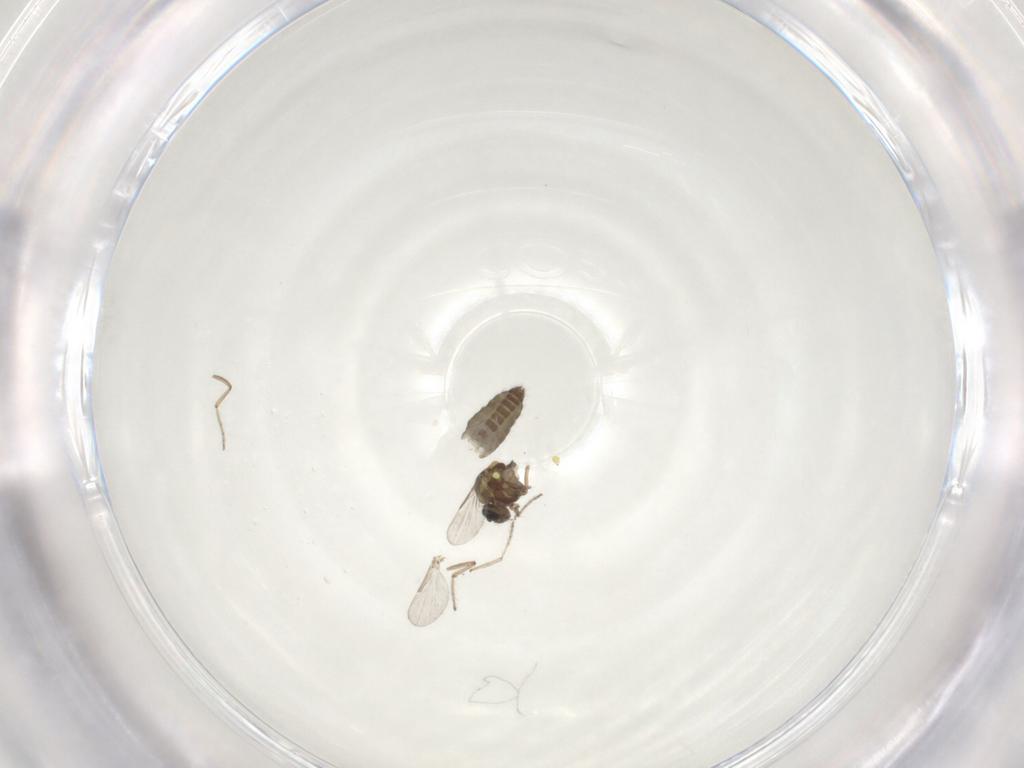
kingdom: Animalia
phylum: Arthropoda
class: Insecta
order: Diptera
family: Ceratopogonidae
